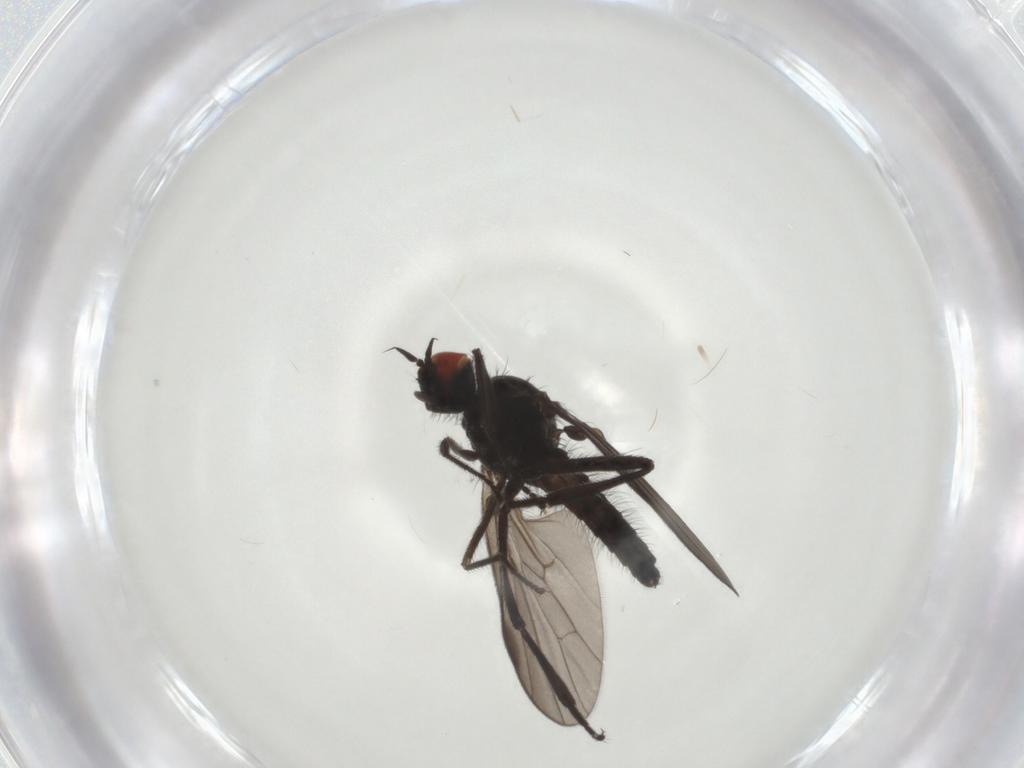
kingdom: Animalia
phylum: Arthropoda
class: Insecta
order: Diptera
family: Hybotidae
